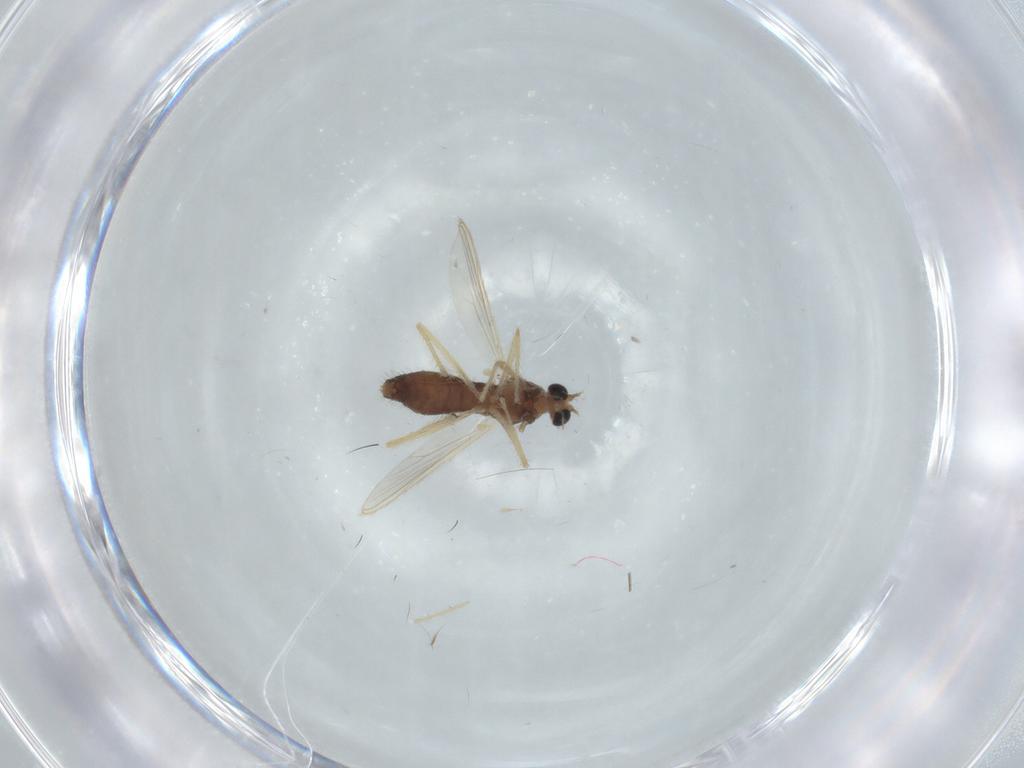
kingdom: Animalia
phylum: Arthropoda
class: Insecta
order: Diptera
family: Chironomidae
